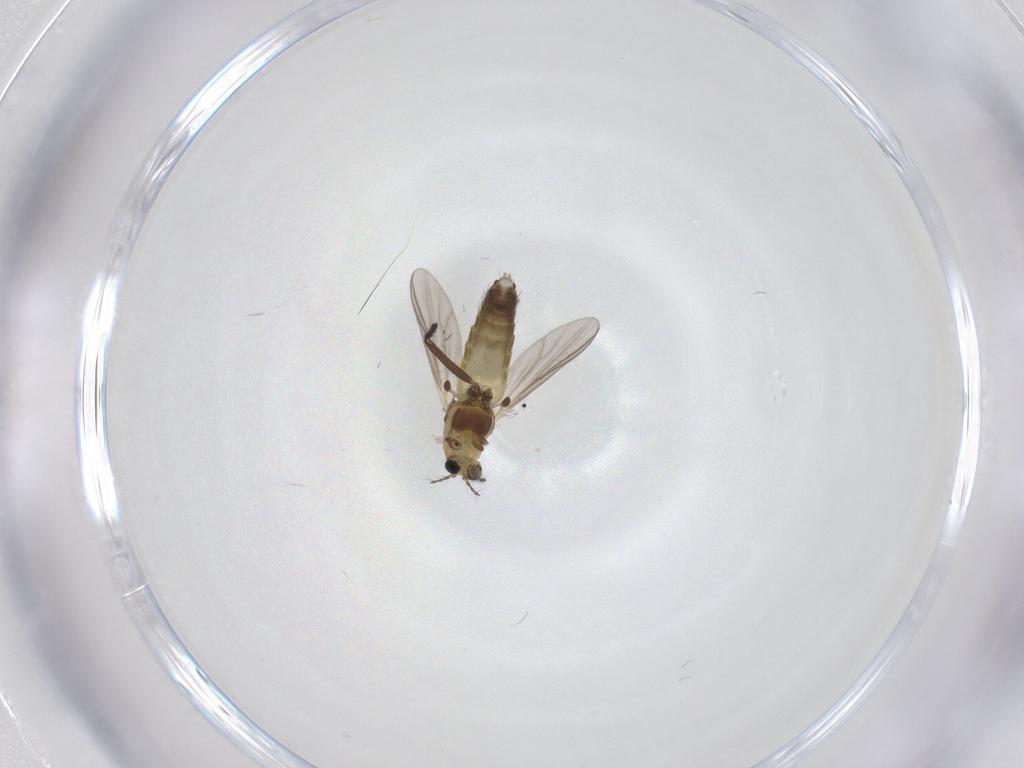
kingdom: Animalia
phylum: Arthropoda
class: Insecta
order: Diptera
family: Chironomidae
